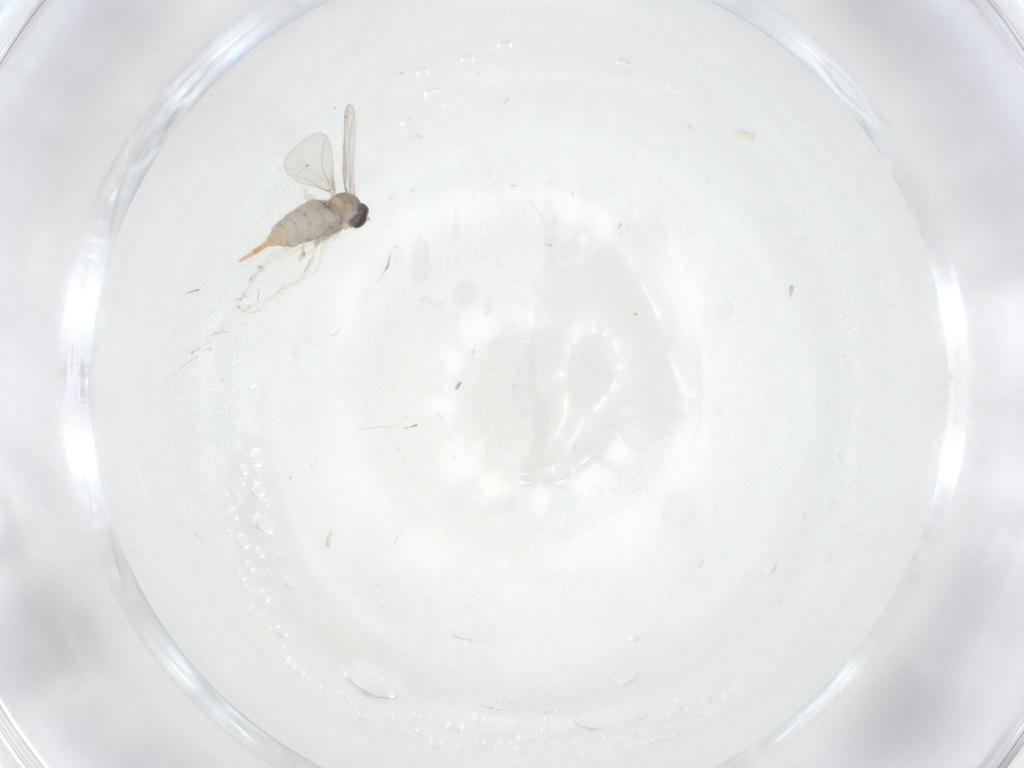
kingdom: Animalia
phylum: Arthropoda
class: Insecta
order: Diptera
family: Cecidomyiidae
